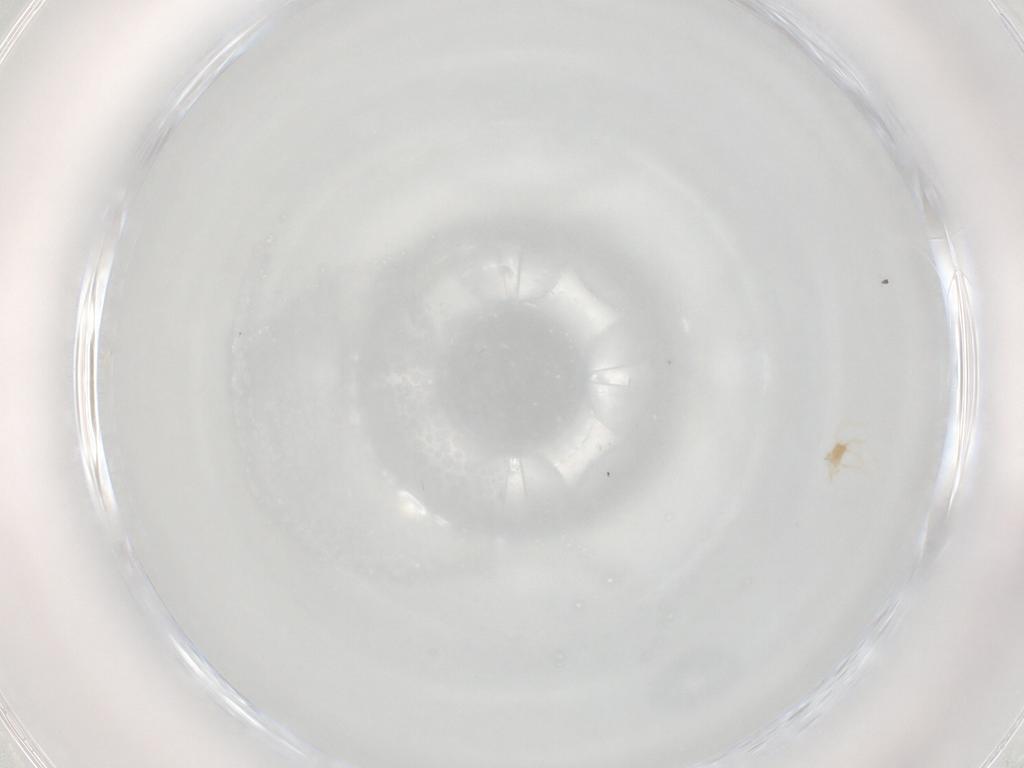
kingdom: Animalia
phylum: Arthropoda
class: Arachnida
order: Trombidiformes
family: Erythraeidae
